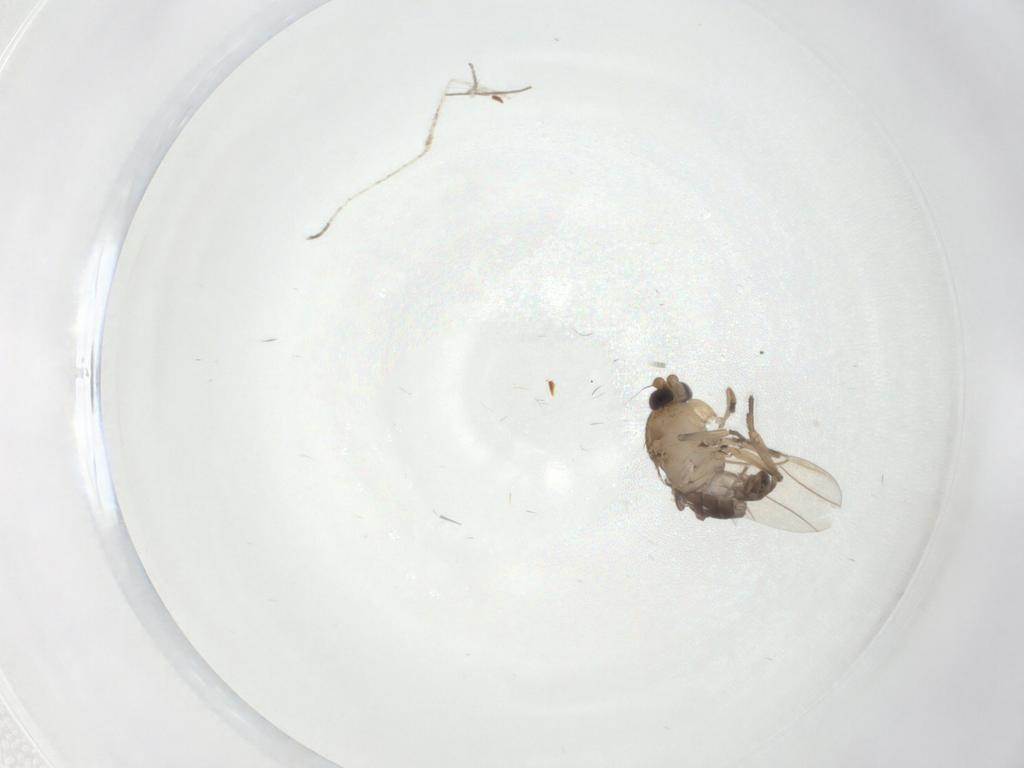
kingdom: Animalia
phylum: Arthropoda
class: Insecta
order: Diptera
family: Phoridae
